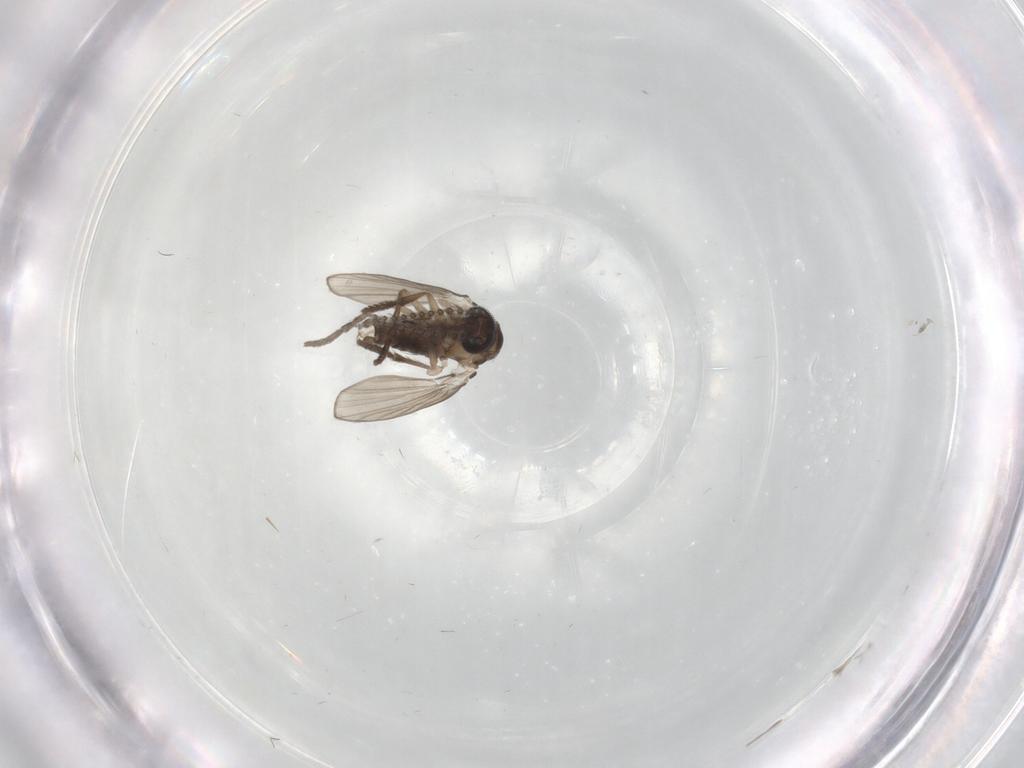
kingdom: Animalia
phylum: Arthropoda
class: Insecta
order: Diptera
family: Psychodidae
